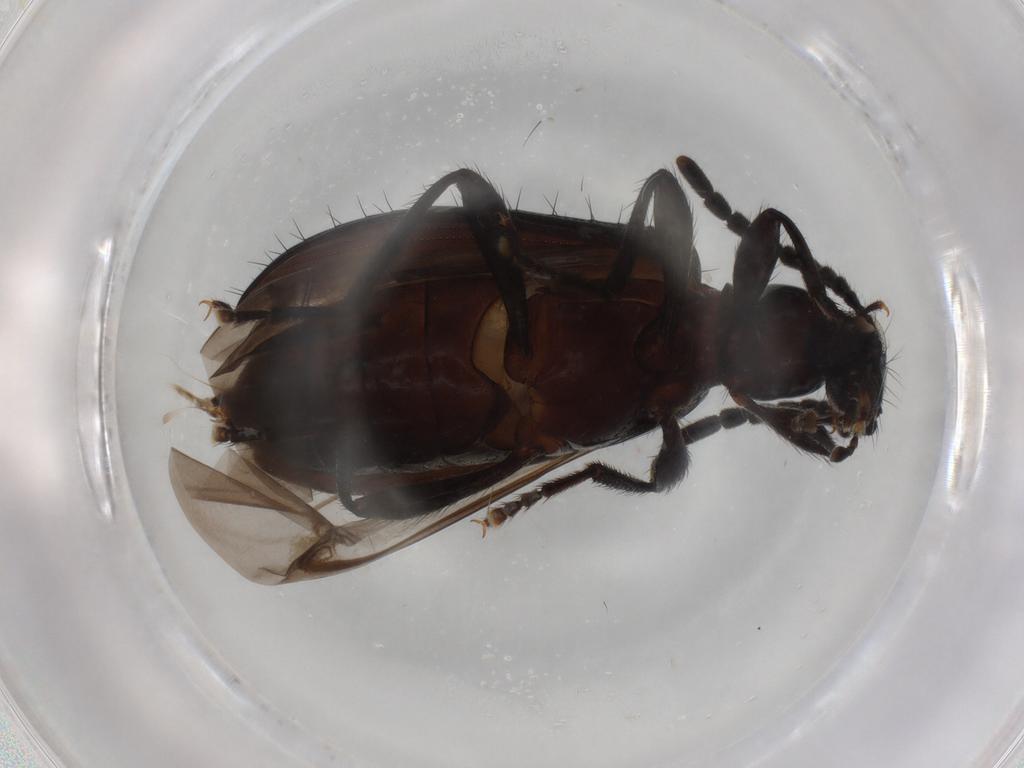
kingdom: Animalia
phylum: Arthropoda
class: Insecta
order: Coleoptera
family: Tenebrionidae
